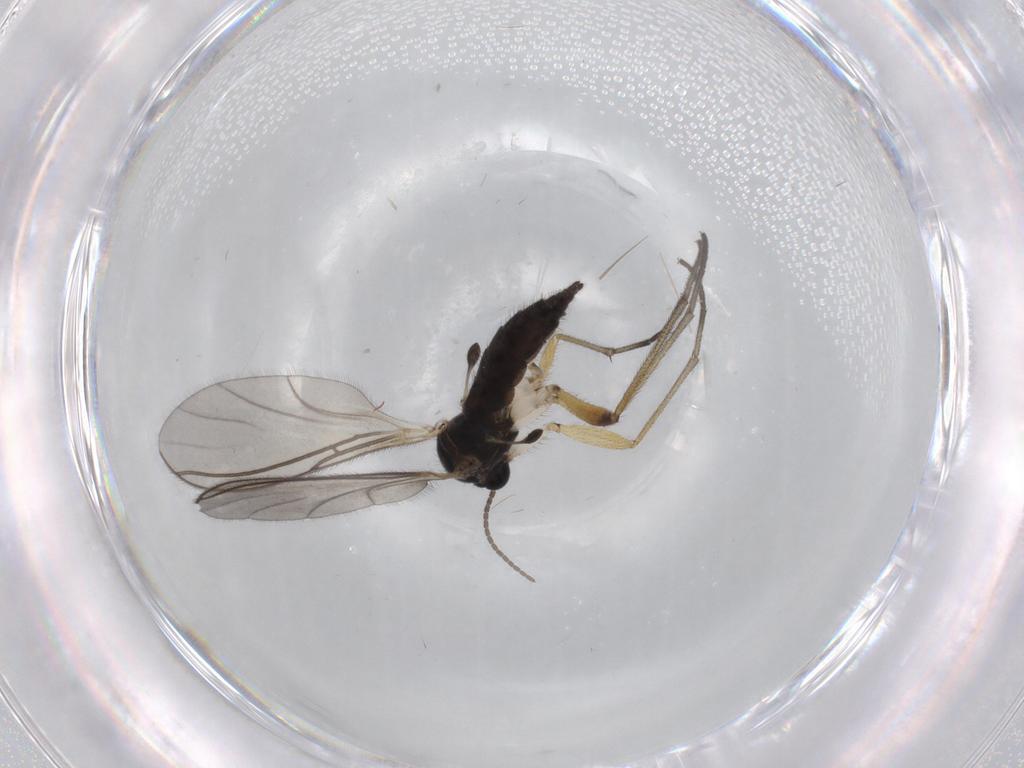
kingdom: Animalia
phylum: Arthropoda
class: Insecta
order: Diptera
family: Sciaridae
